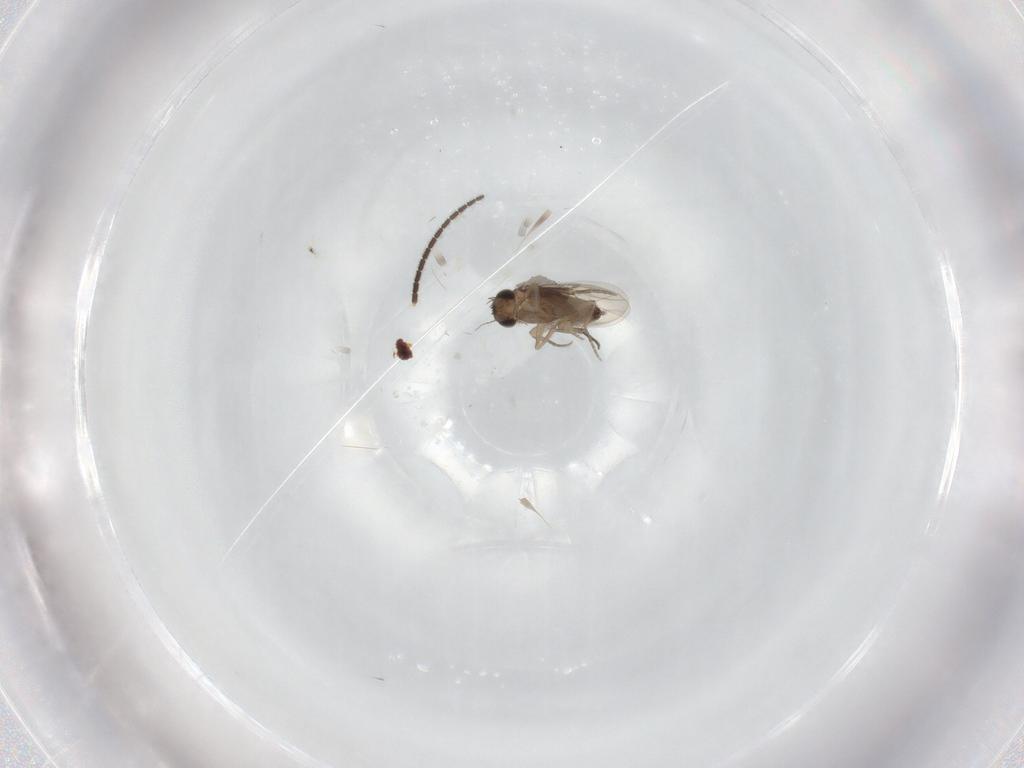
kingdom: Animalia
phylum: Arthropoda
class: Insecta
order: Diptera
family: Sciaridae
